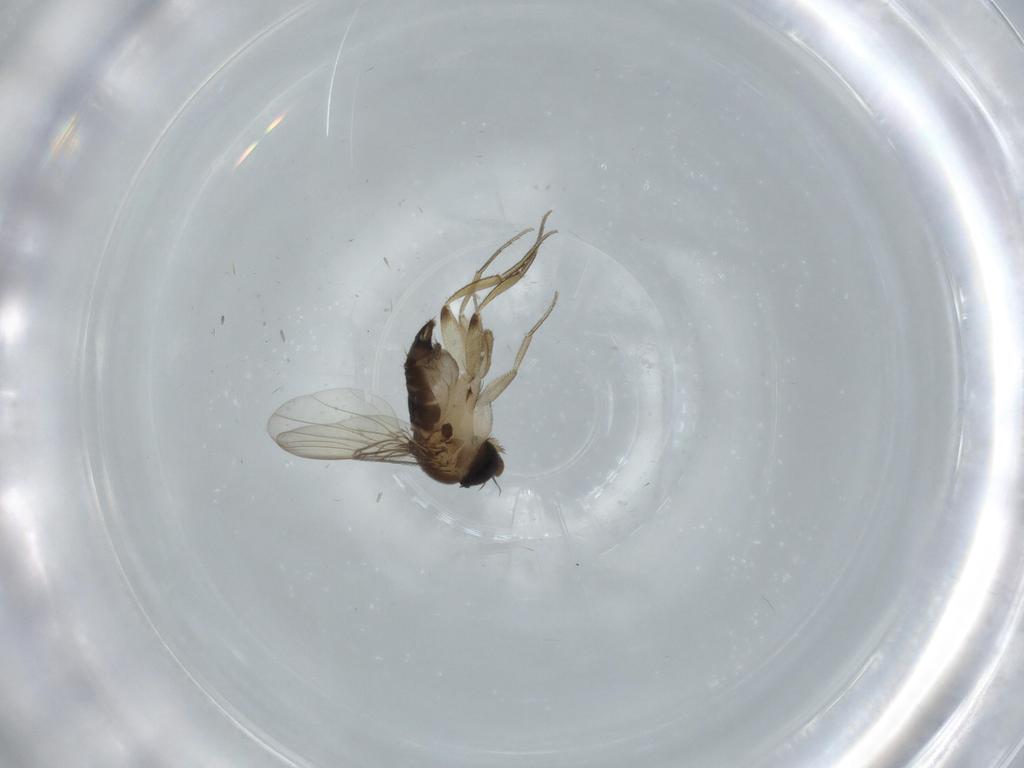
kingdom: Animalia
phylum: Arthropoda
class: Insecta
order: Diptera
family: Phoridae
